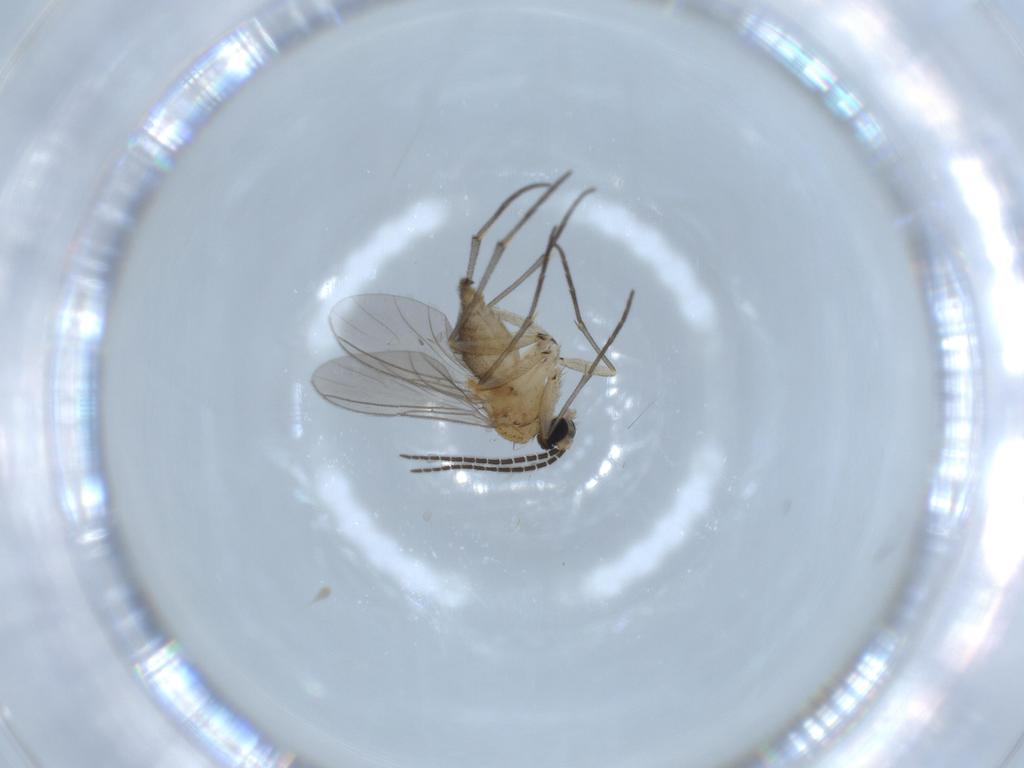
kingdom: Animalia
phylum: Arthropoda
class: Insecta
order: Diptera
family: Sciaridae
